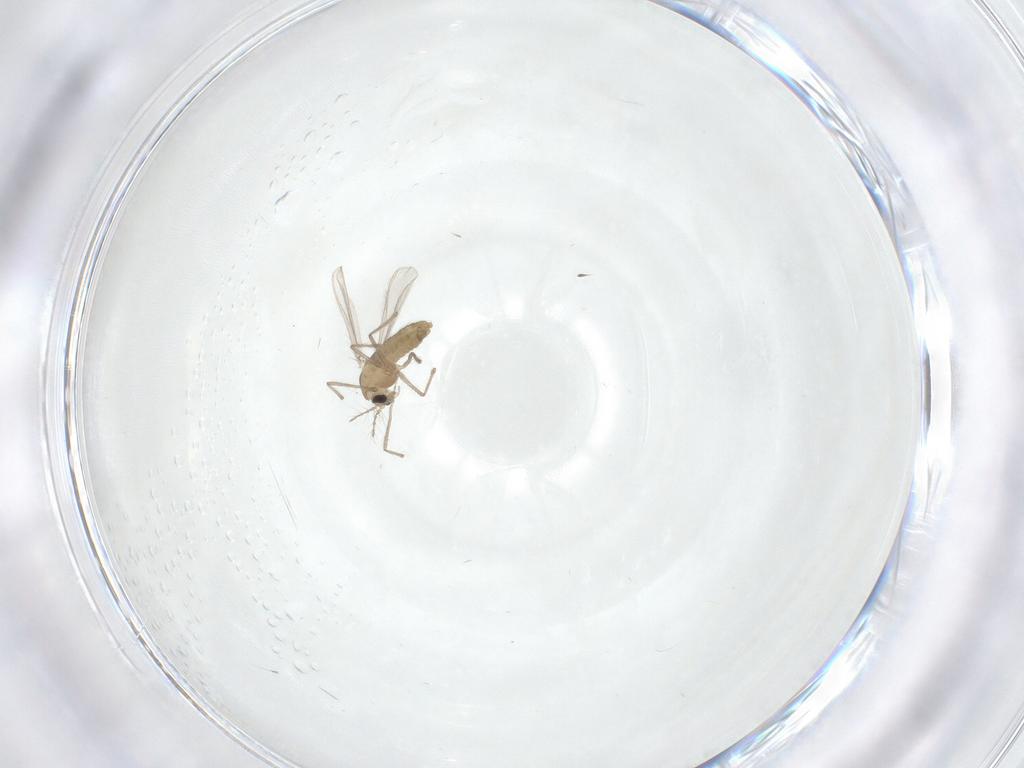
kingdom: Animalia
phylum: Arthropoda
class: Insecta
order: Diptera
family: Chironomidae
